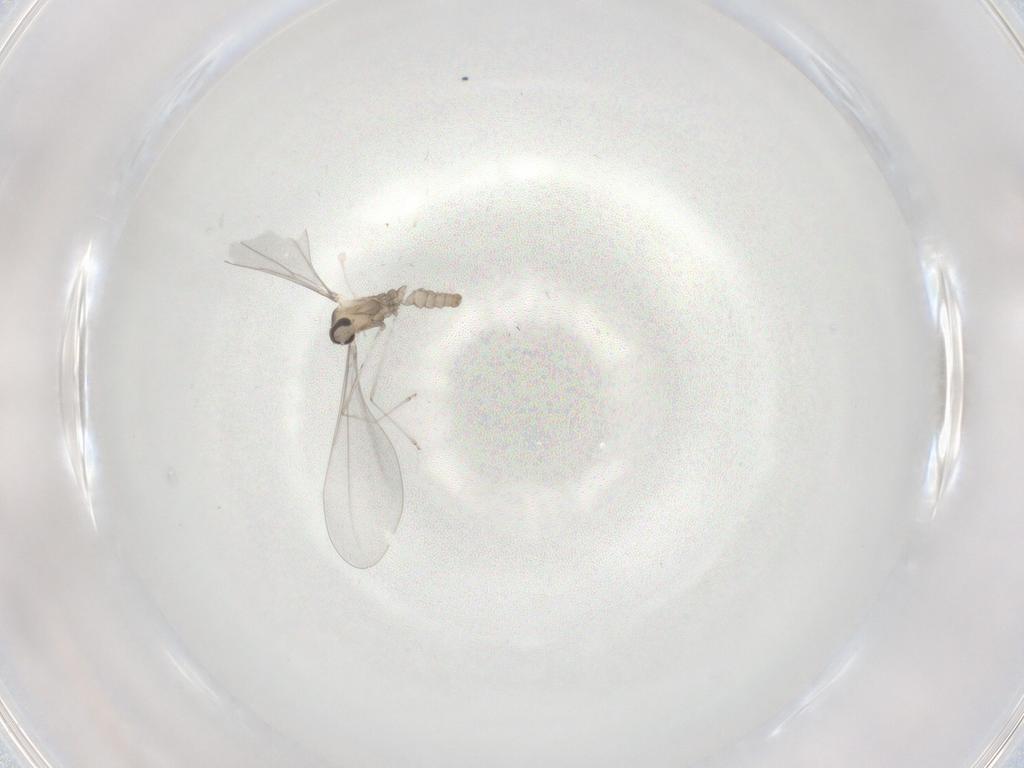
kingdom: Animalia
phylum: Arthropoda
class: Insecta
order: Diptera
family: Cecidomyiidae
